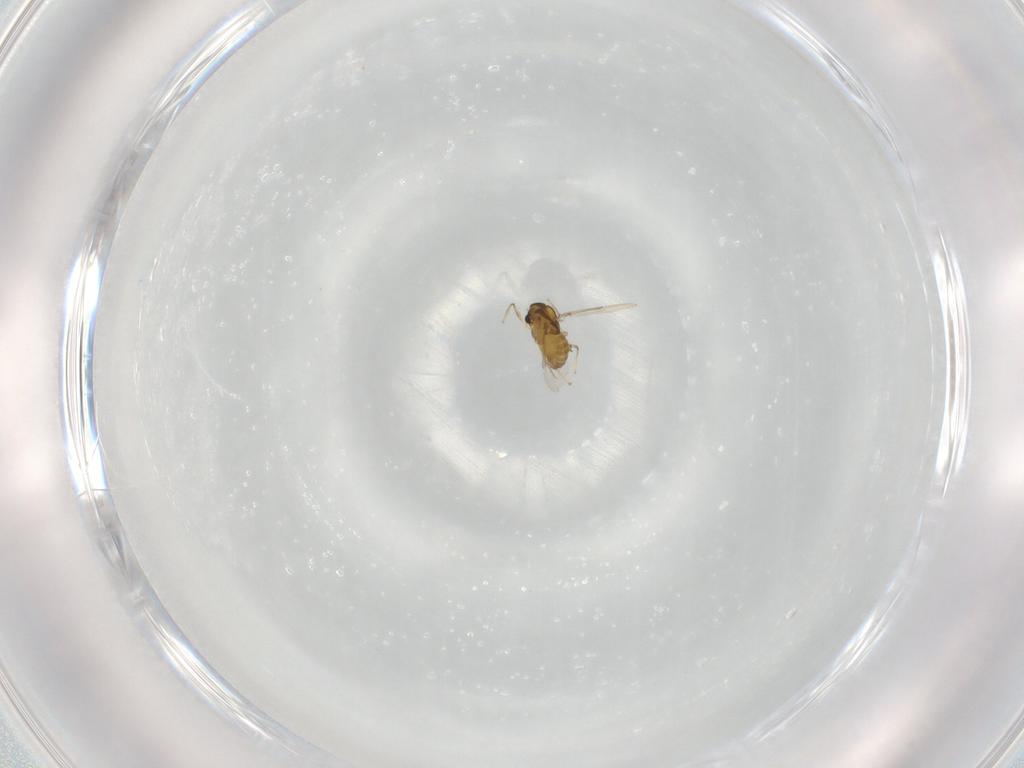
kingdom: Animalia
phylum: Arthropoda
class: Insecta
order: Diptera
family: Chironomidae
